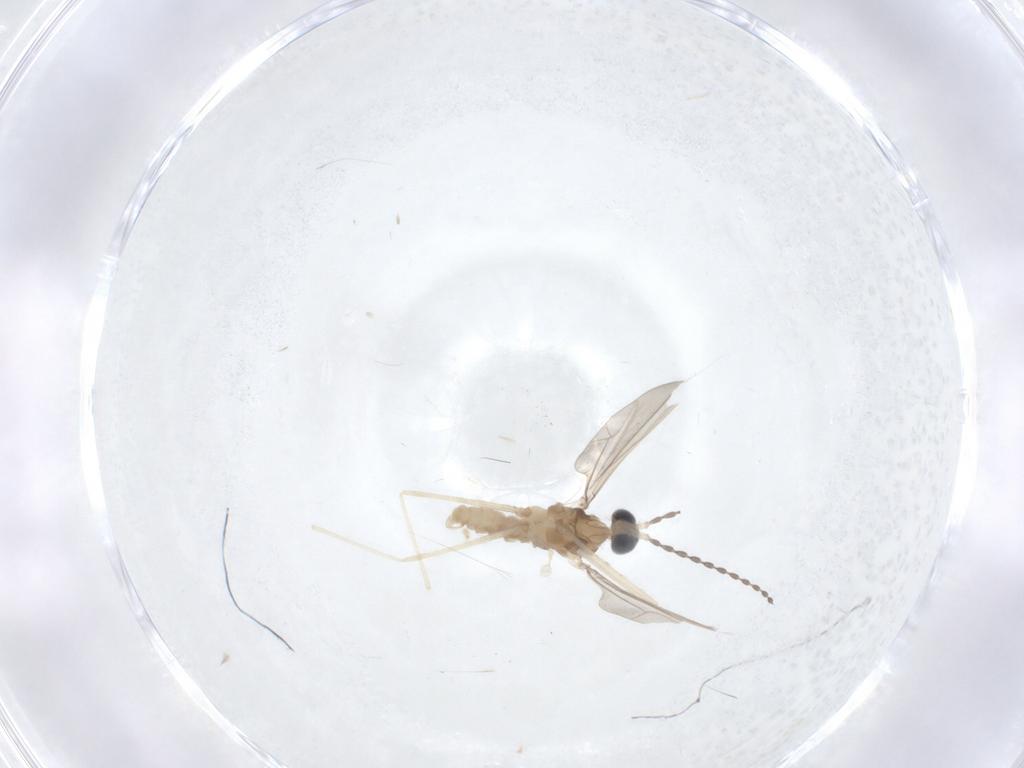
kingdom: Animalia
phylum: Arthropoda
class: Insecta
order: Diptera
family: Cecidomyiidae
